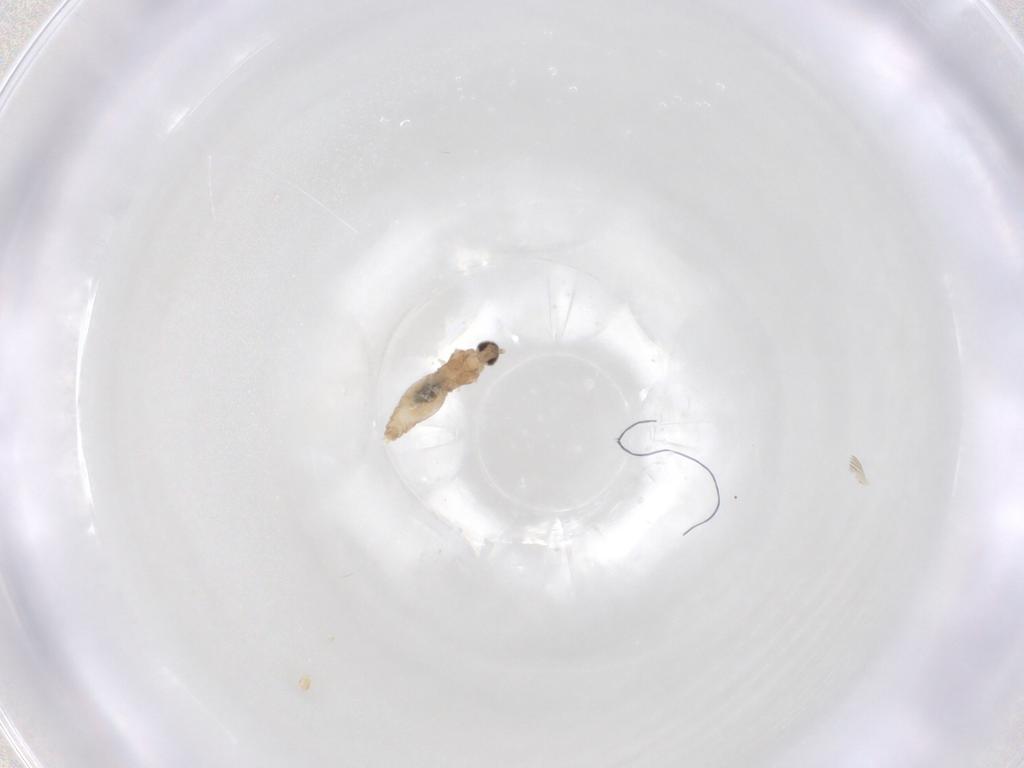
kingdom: Animalia
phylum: Arthropoda
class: Insecta
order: Diptera
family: Cecidomyiidae
